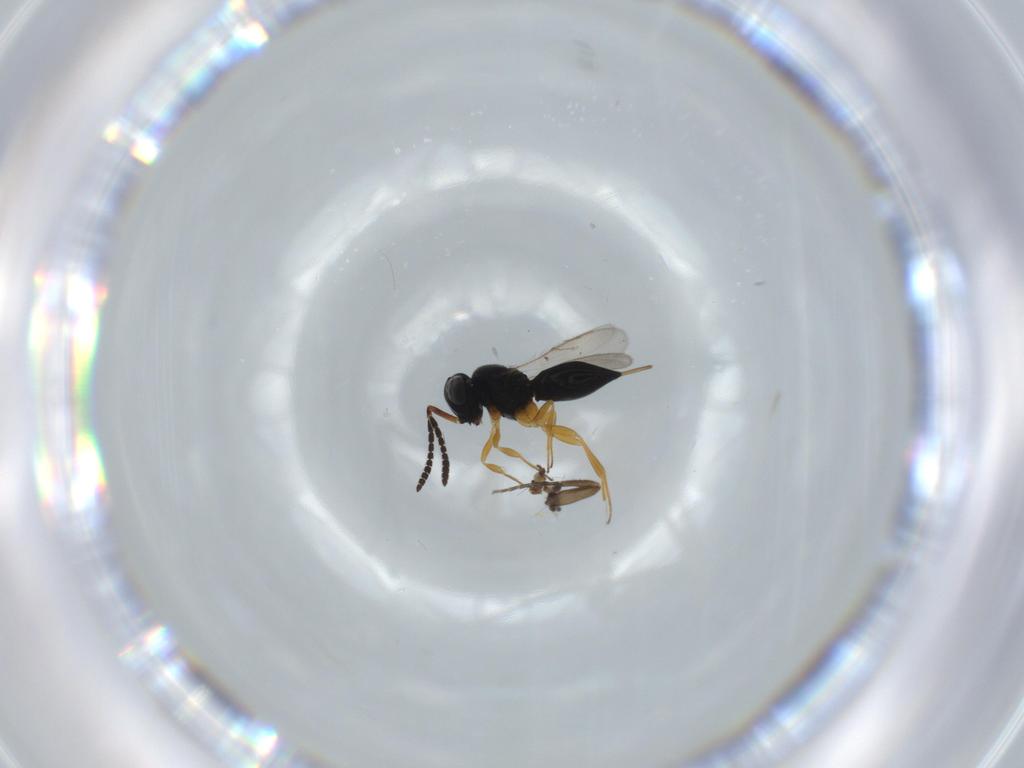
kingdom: Animalia
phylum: Arthropoda
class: Insecta
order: Hymenoptera
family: Scelionidae
